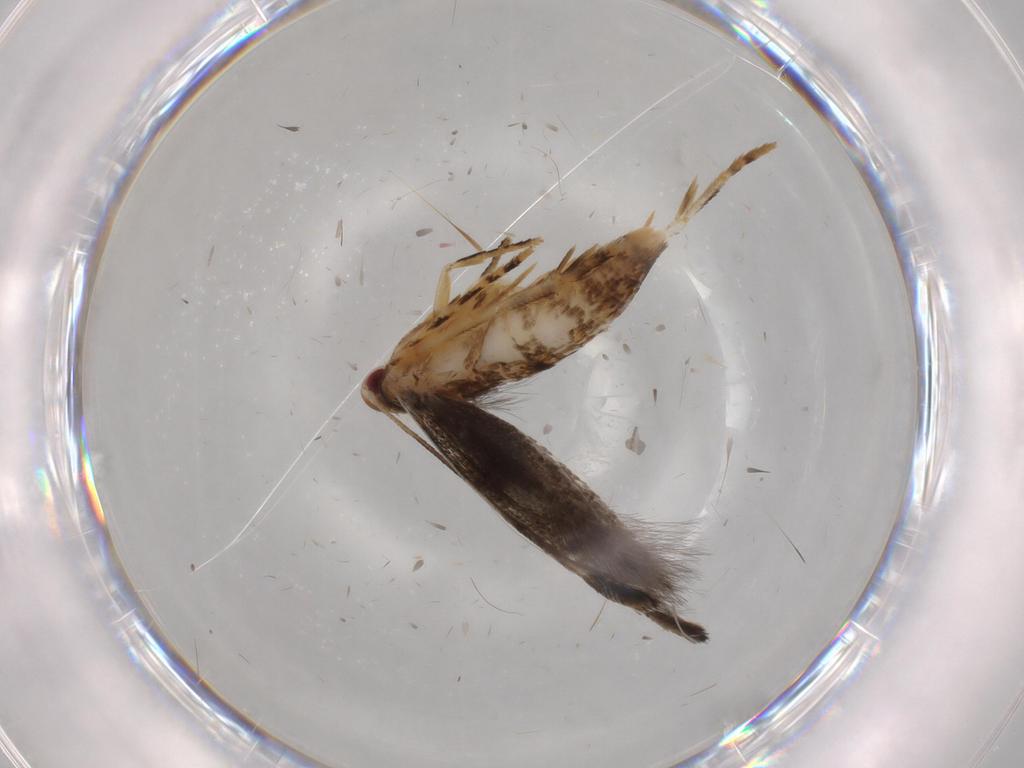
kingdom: Animalia
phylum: Arthropoda
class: Insecta
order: Lepidoptera
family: Momphidae
